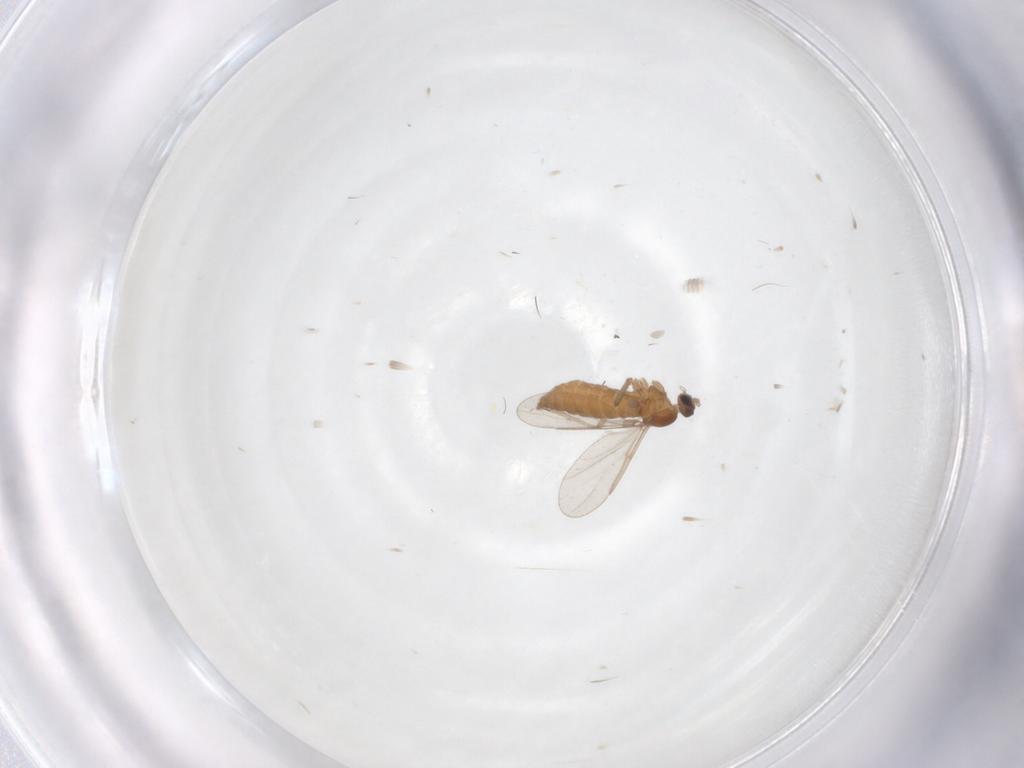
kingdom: Animalia
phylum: Arthropoda
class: Insecta
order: Diptera
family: Cecidomyiidae
